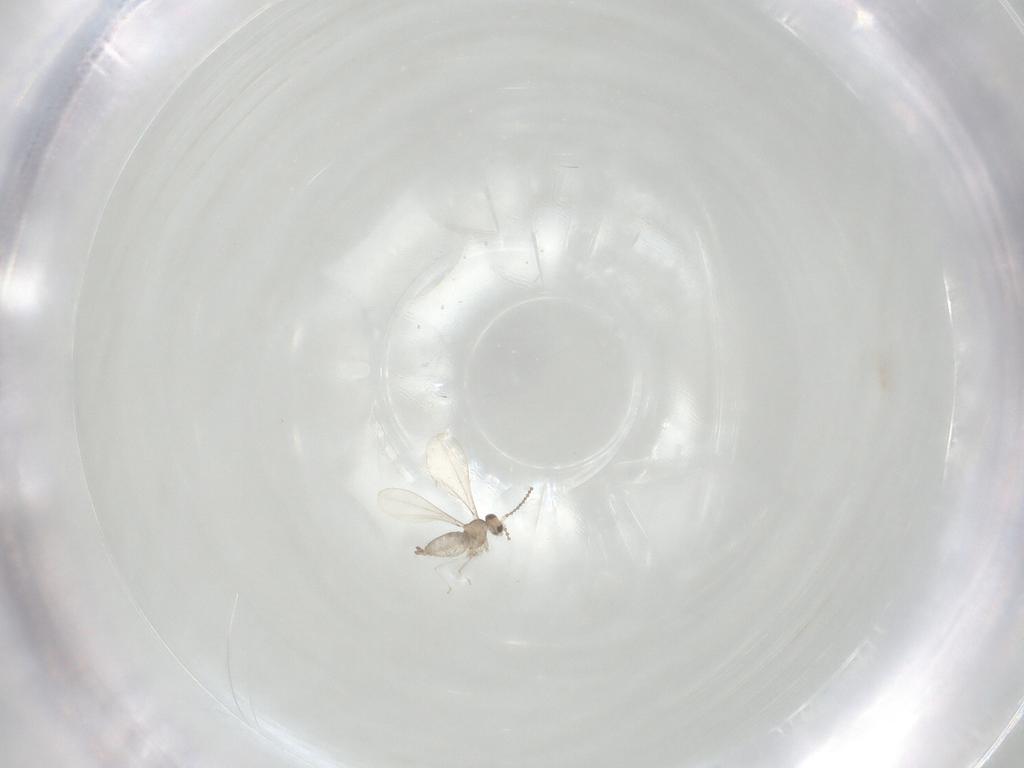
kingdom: Animalia
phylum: Arthropoda
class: Insecta
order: Diptera
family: Cecidomyiidae
